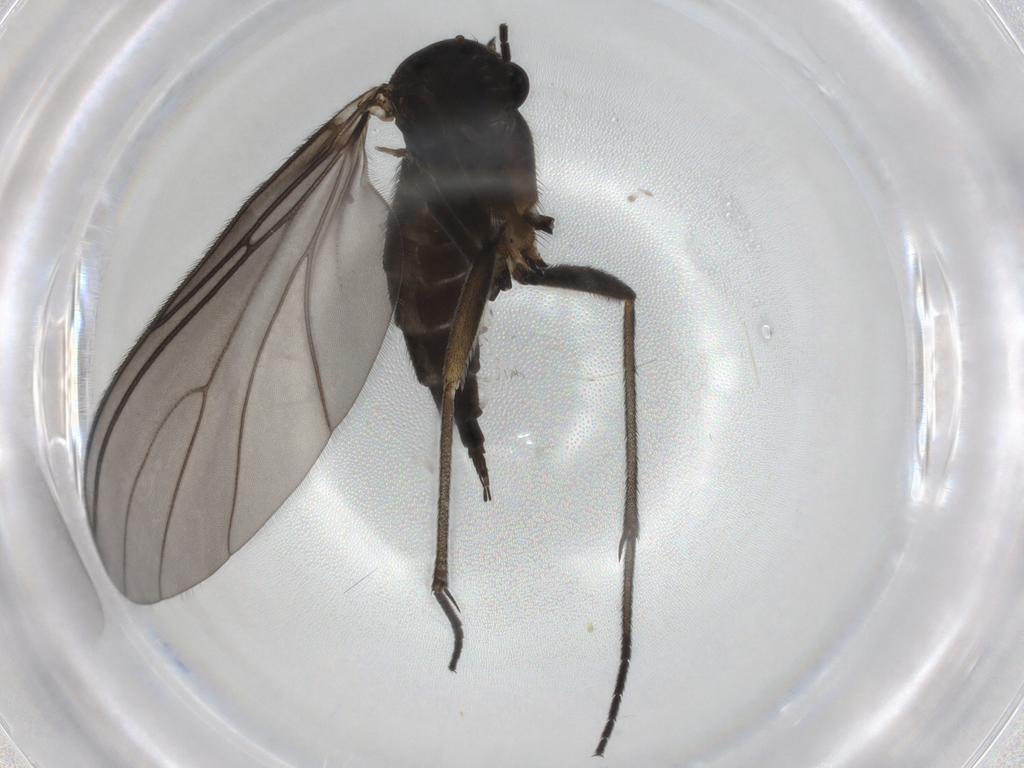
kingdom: Animalia
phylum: Arthropoda
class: Insecta
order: Diptera
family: Sciaridae
